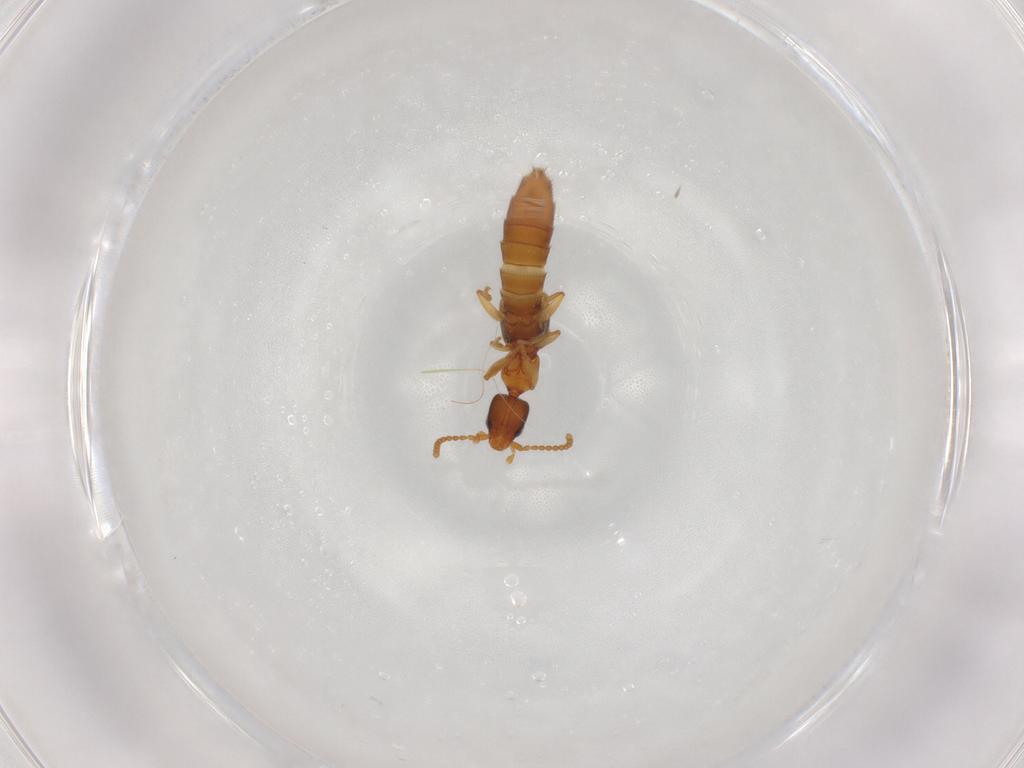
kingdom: Animalia
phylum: Arthropoda
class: Insecta
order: Coleoptera
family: Staphylinidae
